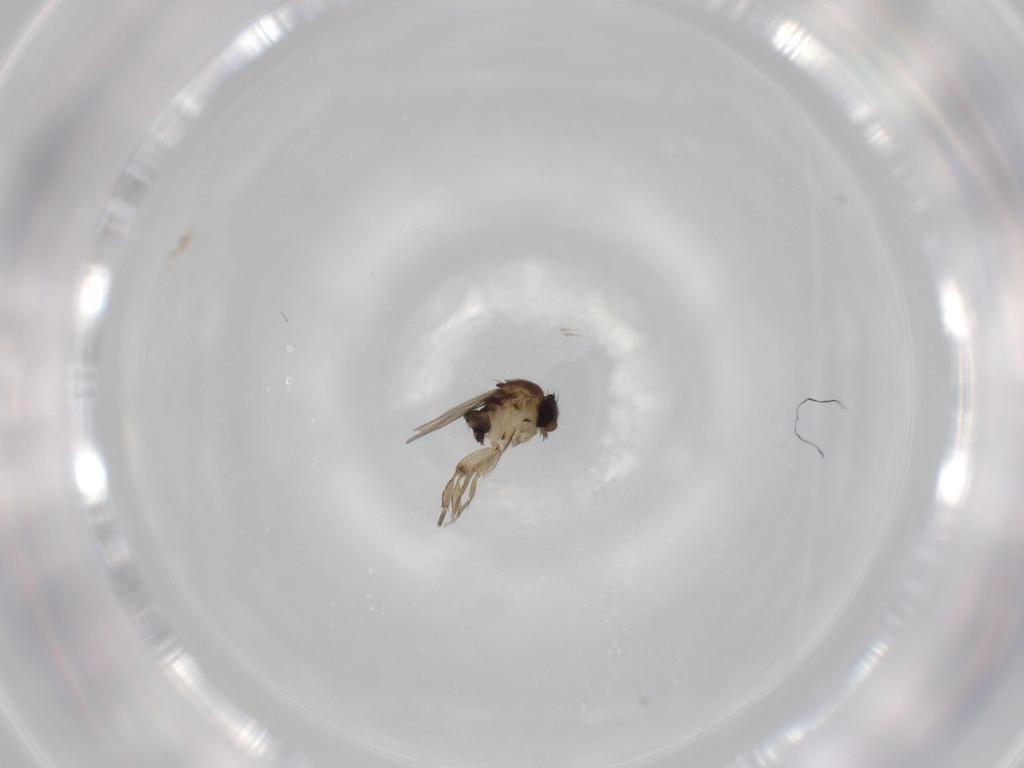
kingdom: Animalia
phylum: Arthropoda
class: Insecta
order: Diptera
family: Phoridae
